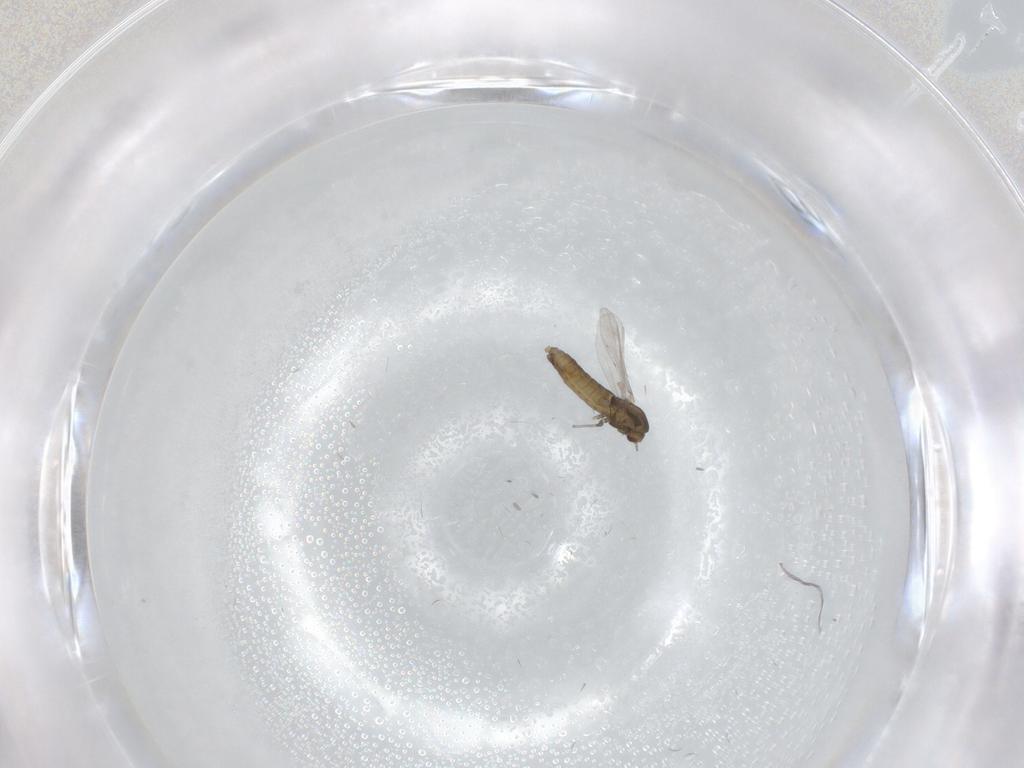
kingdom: Animalia
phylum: Arthropoda
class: Insecta
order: Diptera
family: Chironomidae
